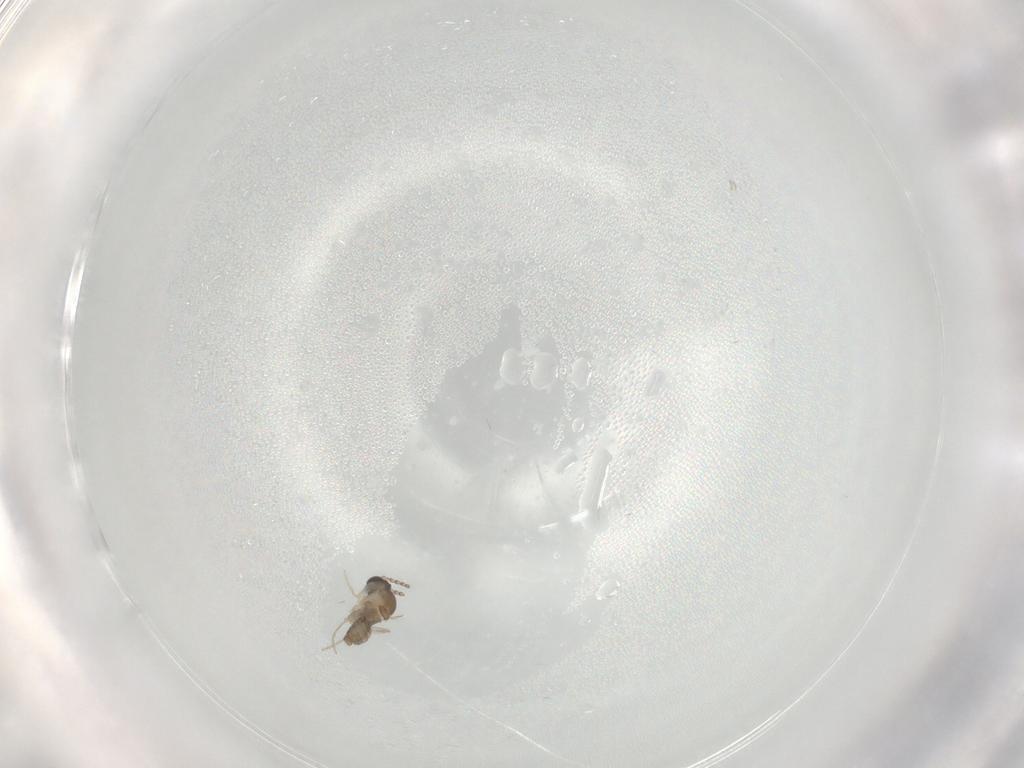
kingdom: Animalia
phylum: Arthropoda
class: Insecta
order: Diptera
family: Cecidomyiidae
